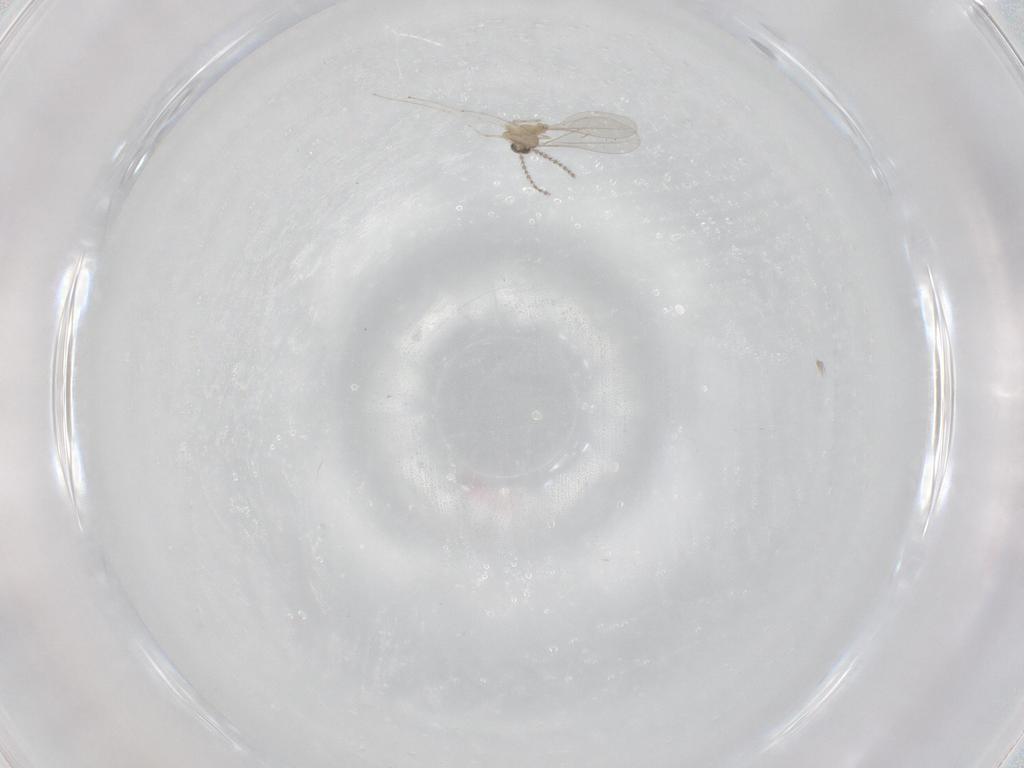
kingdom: Animalia
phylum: Arthropoda
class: Insecta
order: Diptera
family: Cecidomyiidae
